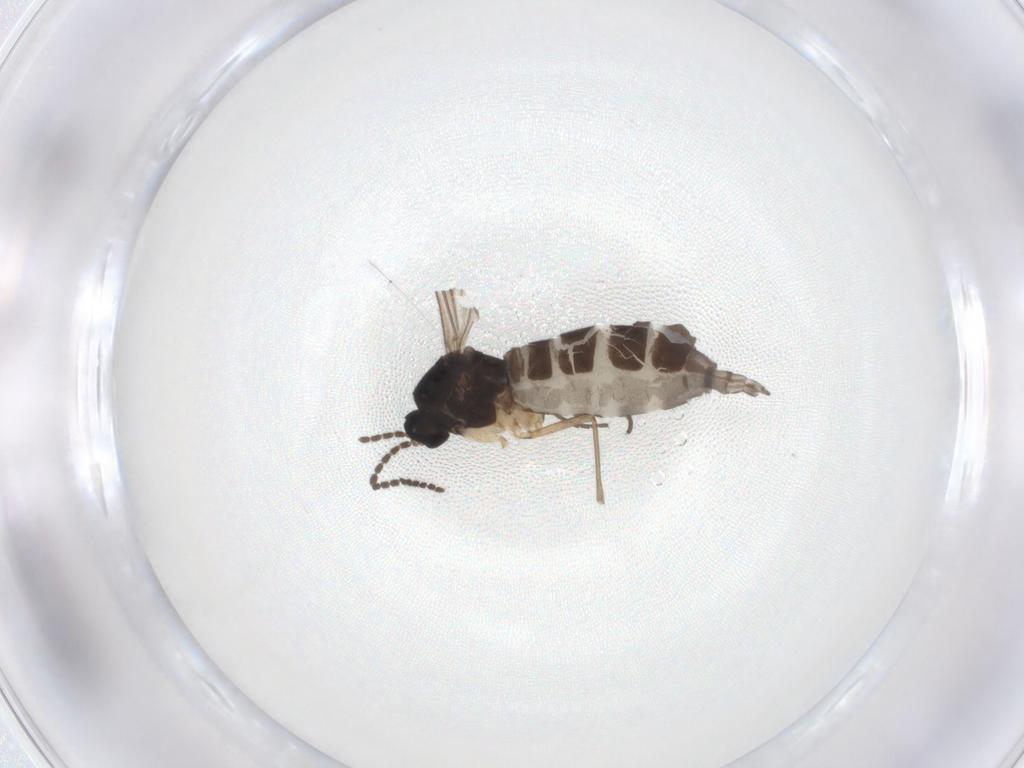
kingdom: Animalia
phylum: Arthropoda
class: Insecta
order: Diptera
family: Sciaridae
